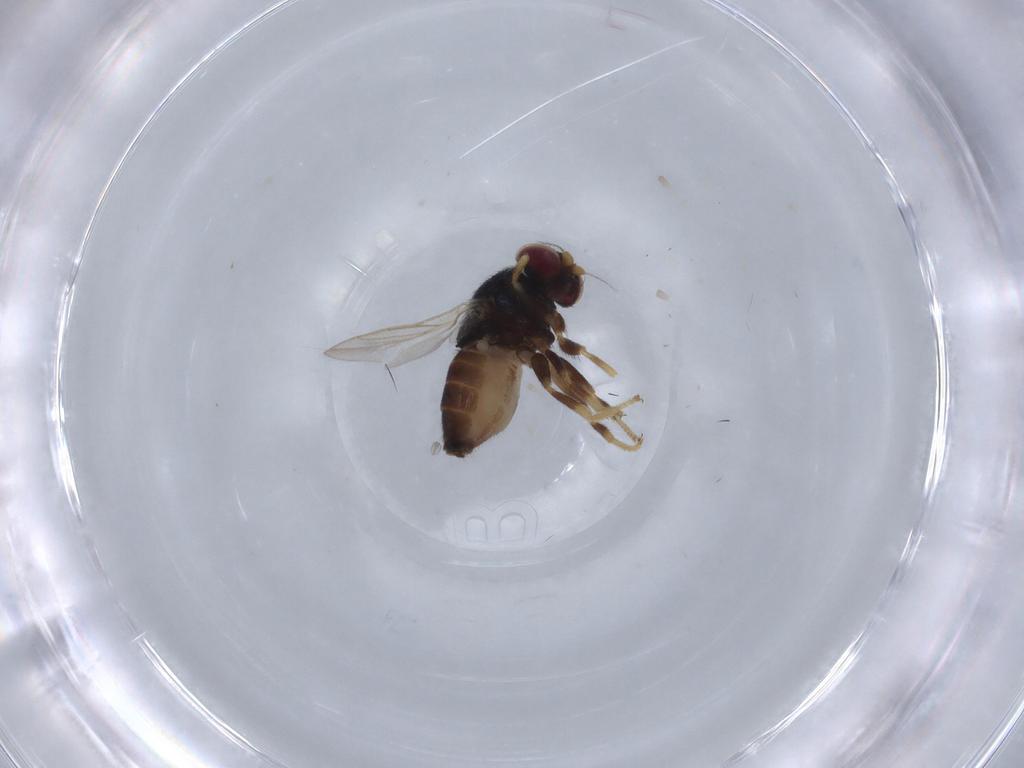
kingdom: Animalia
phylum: Arthropoda
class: Insecta
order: Diptera
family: Chloropidae
